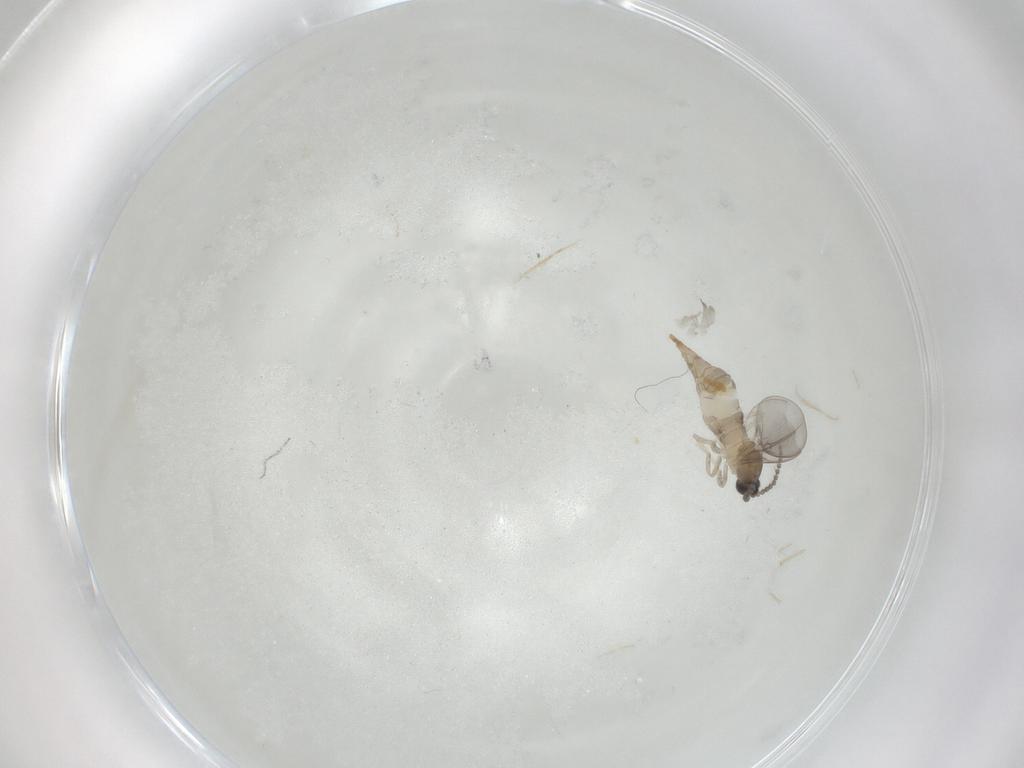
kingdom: Animalia
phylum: Arthropoda
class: Insecta
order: Diptera
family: Cecidomyiidae
